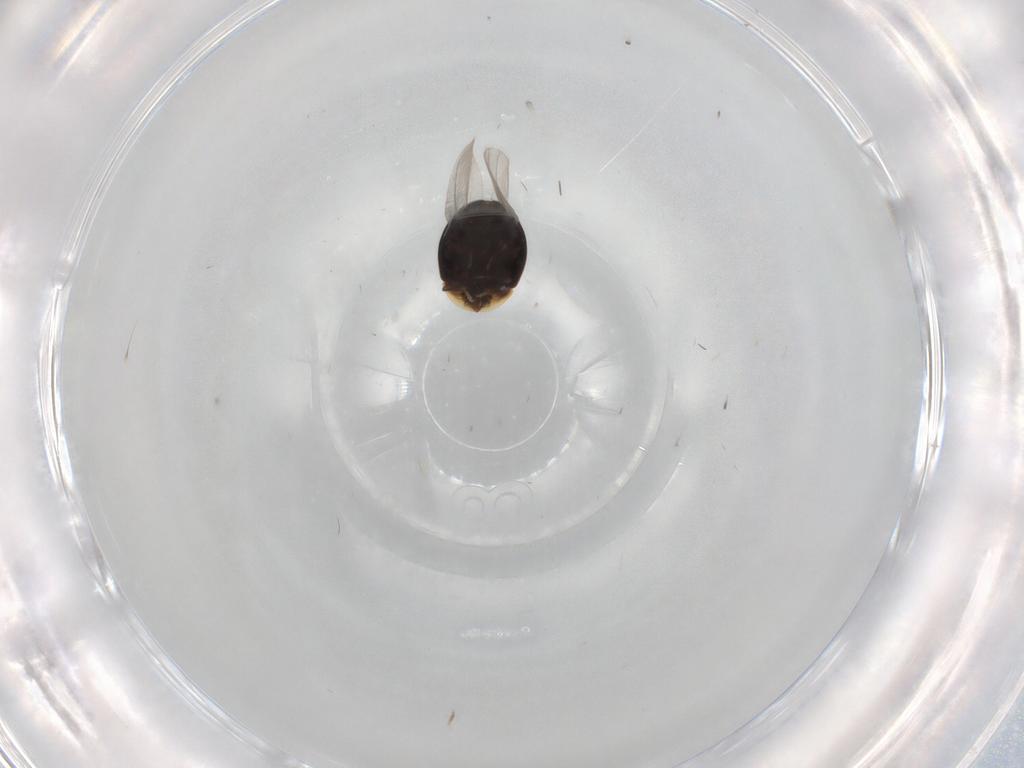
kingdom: Animalia
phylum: Arthropoda
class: Insecta
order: Coleoptera
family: Corylophidae
